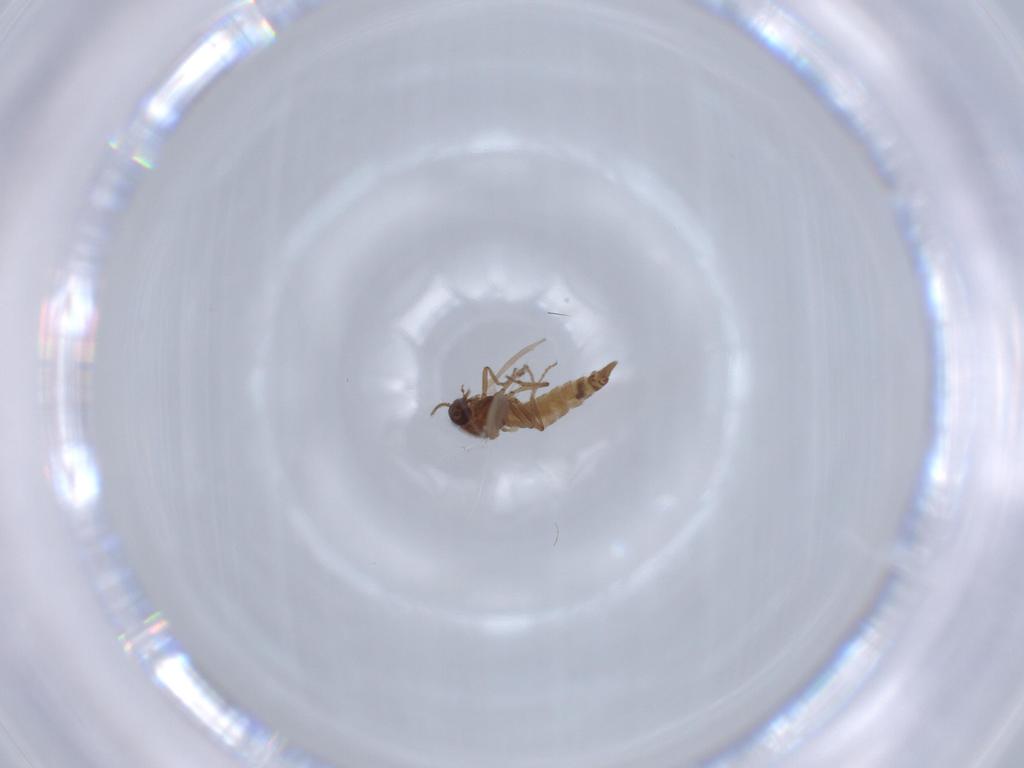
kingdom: Animalia
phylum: Arthropoda
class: Insecta
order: Diptera
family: Ceratopogonidae
